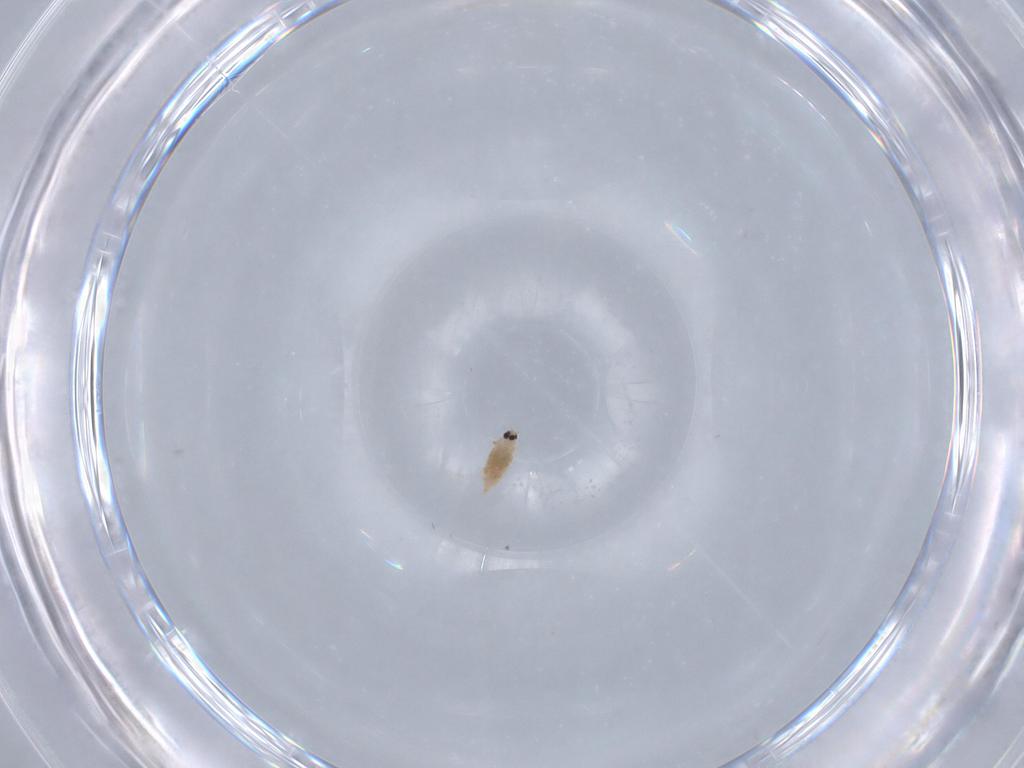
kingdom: Animalia
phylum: Arthropoda
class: Insecta
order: Hemiptera
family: Diaspididae
